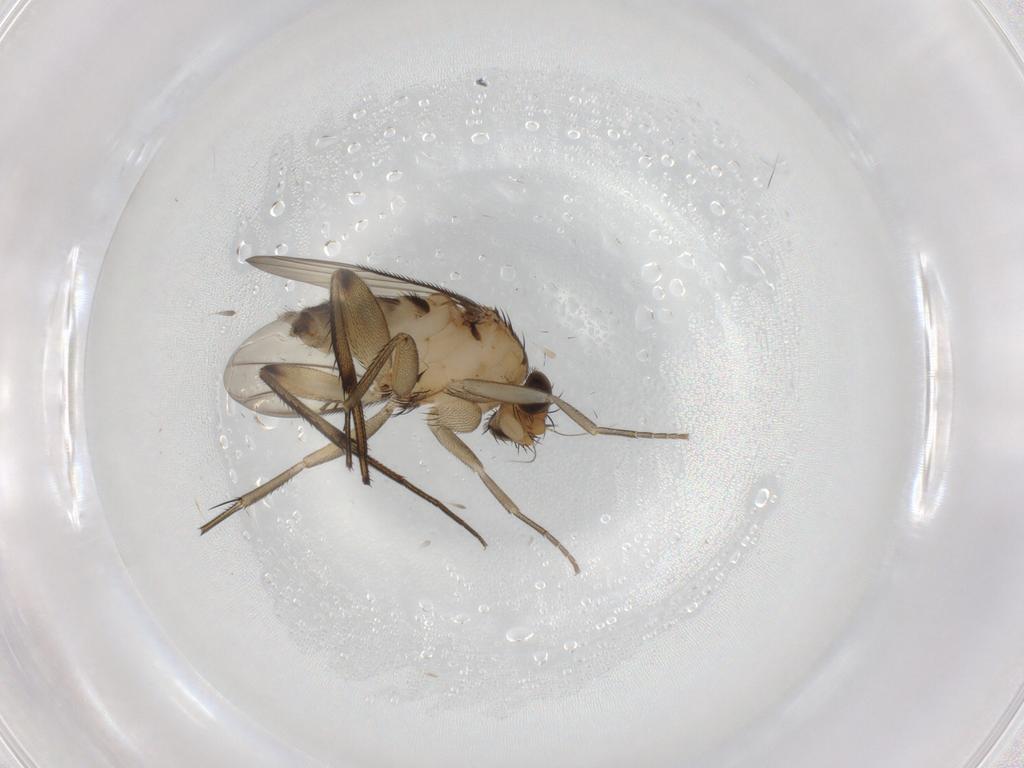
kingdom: Animalia
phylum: Arthropoda
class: Insecta
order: Diptera
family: Phoridae
